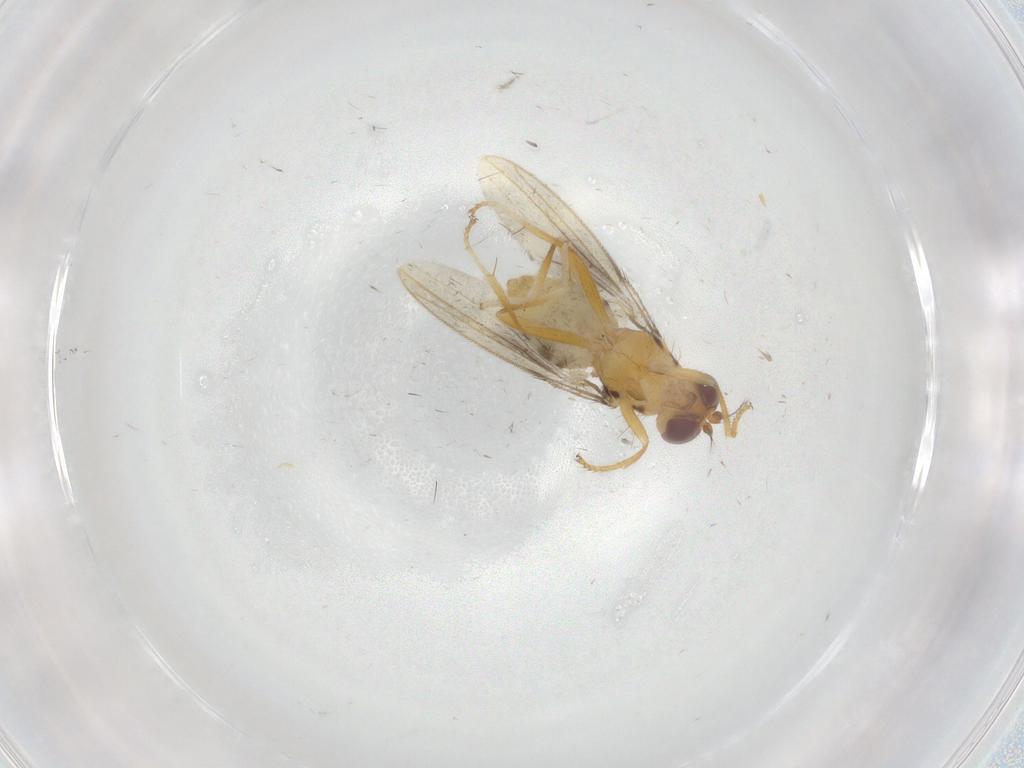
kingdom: Animalia
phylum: Arthropoda
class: Insecta
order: Diptera
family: Periscelididae
